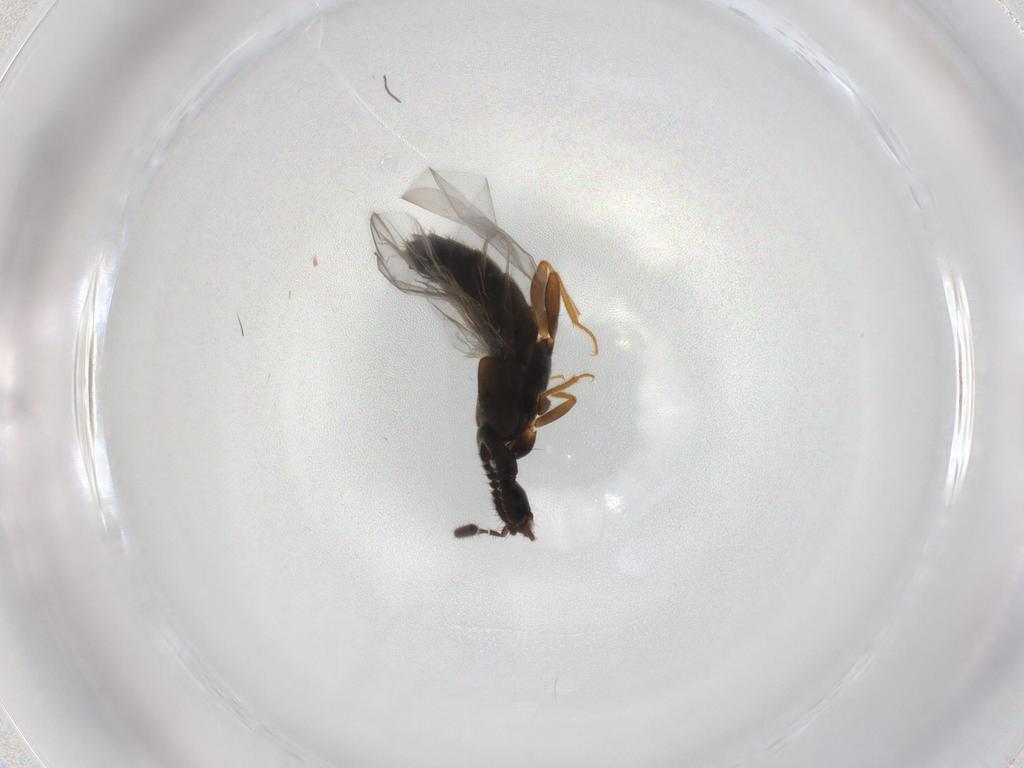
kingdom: Animalia
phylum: Arthropoda
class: Insecta
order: Coleoptera
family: Staphylinidae
